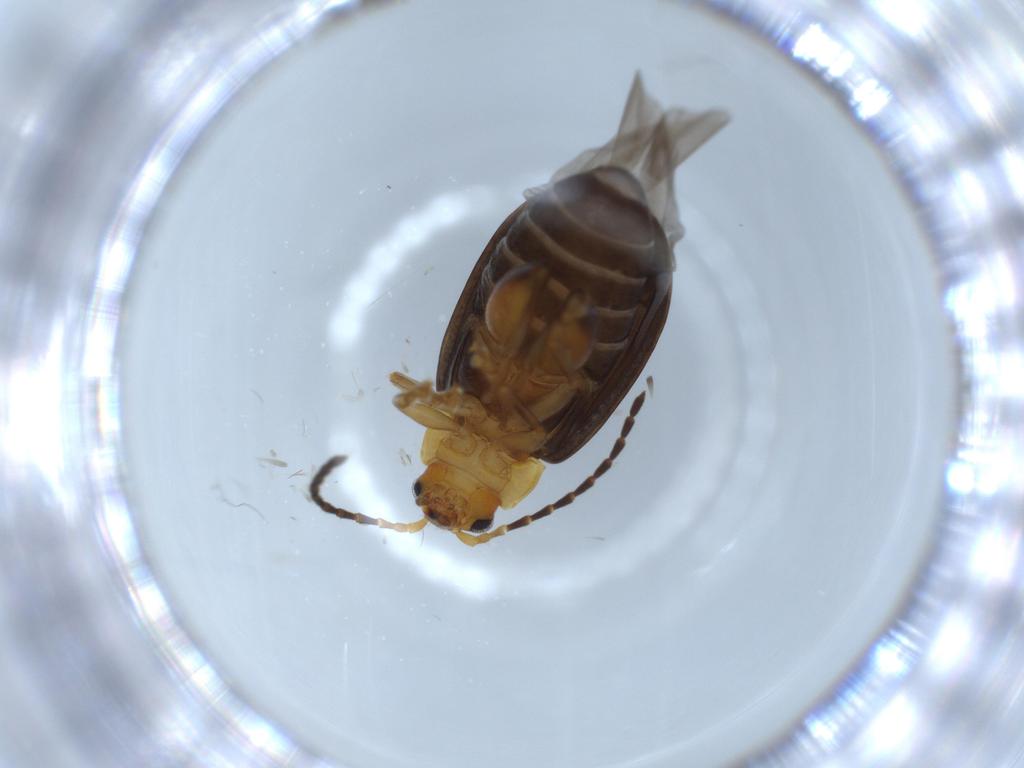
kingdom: Animalia
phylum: Arthropoda
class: Insecta
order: Coleoptera
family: Chrysomelidae
